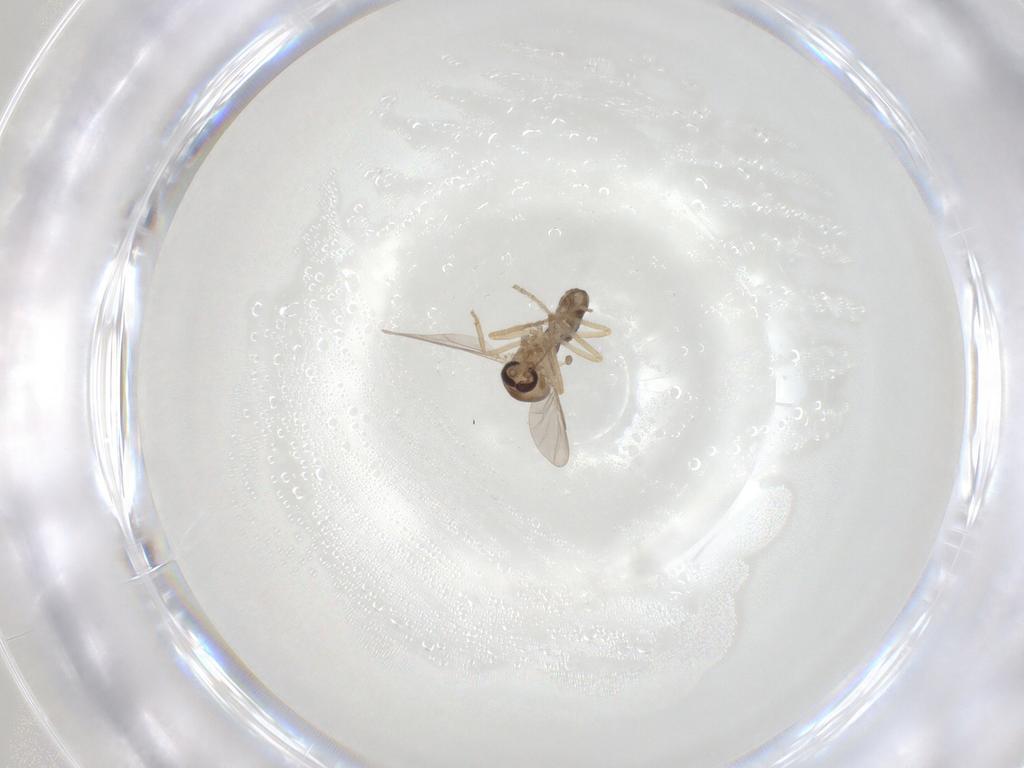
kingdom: Animalia
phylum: Arthropoda
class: Insecta
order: Diptera
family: Ceratopogonidae
